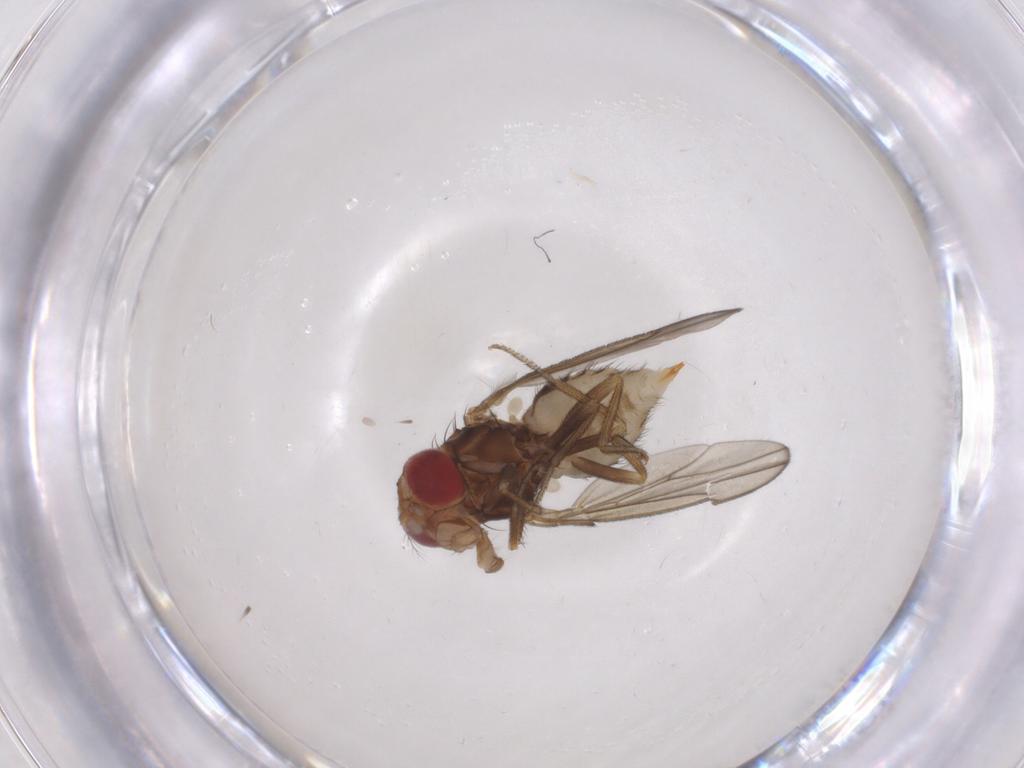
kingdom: Animalia
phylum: Arthropoda
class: Insecta
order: Diptera
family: Drosophilidae
